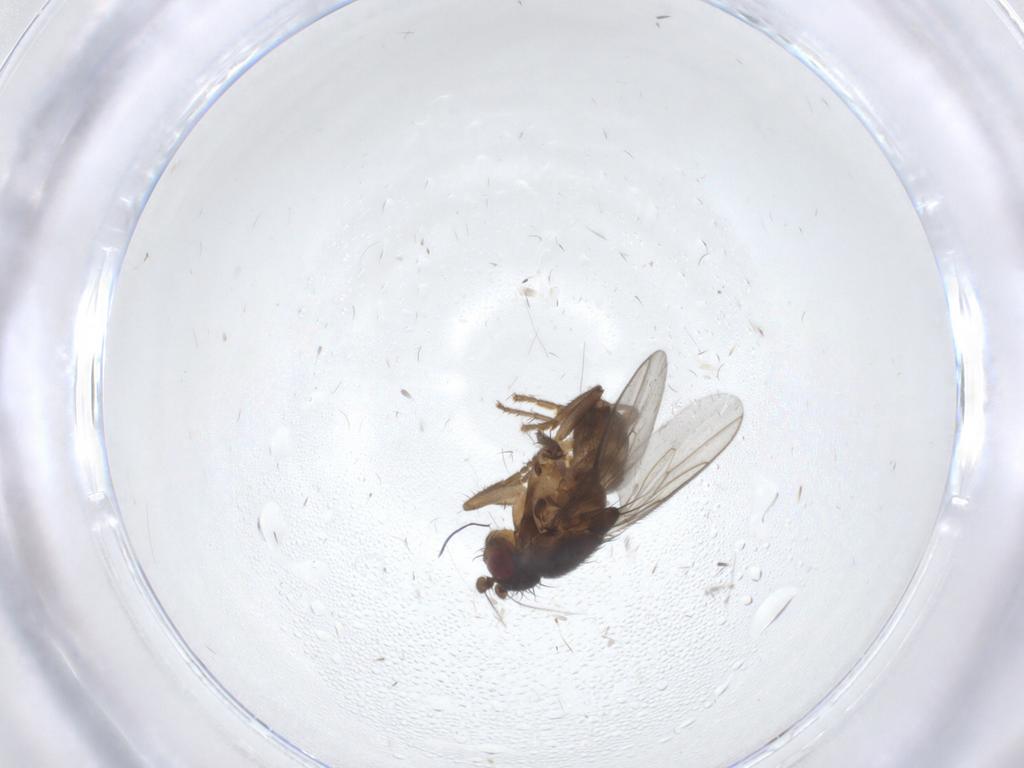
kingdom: Animalia
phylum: Arthropoda
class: Insecta
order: Diptera
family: Sphaeroceridae
